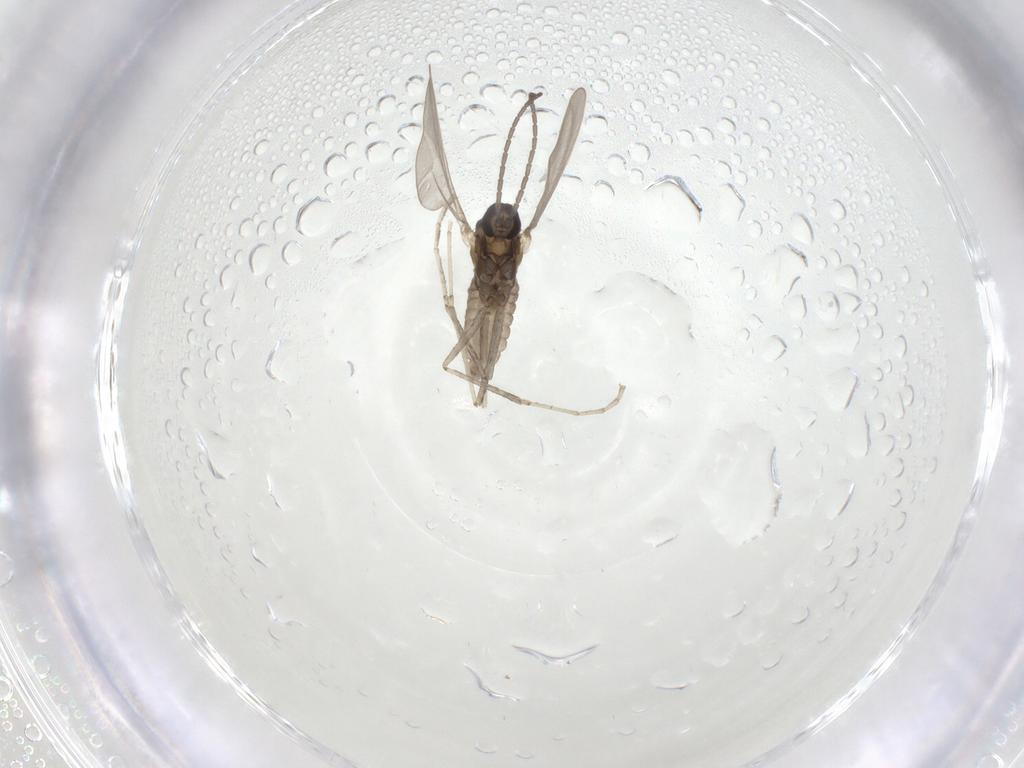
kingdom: Animalia
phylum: Arthropoda
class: Insecta
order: Diptera
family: Cecidomyiidae
